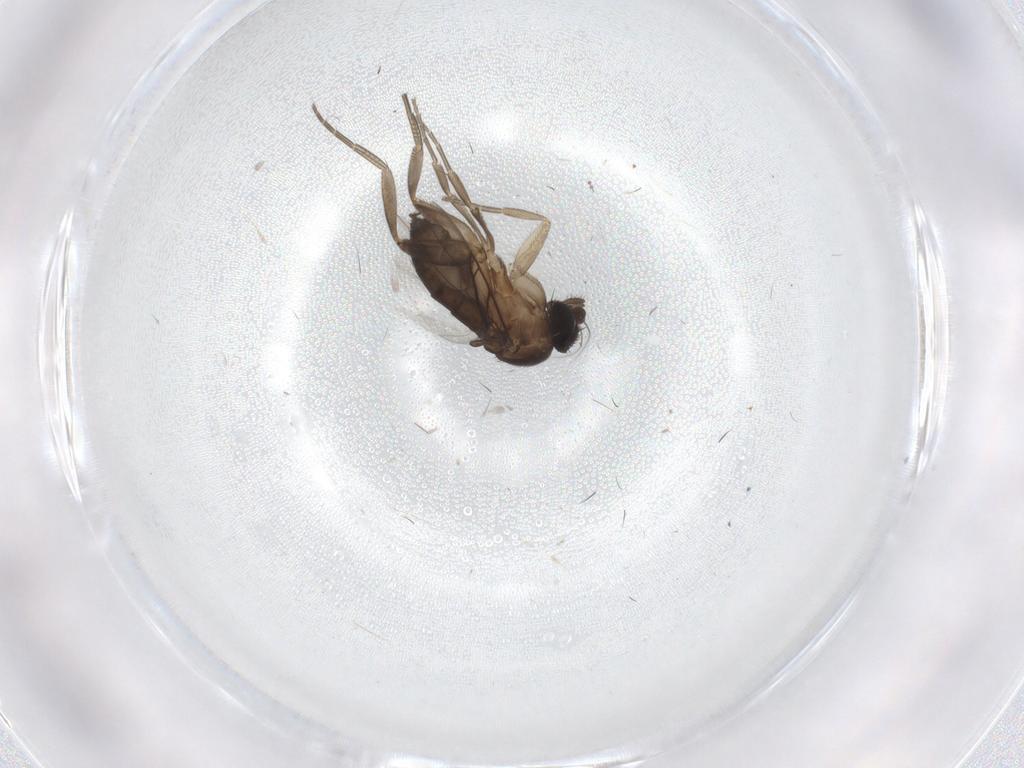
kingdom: Animalia
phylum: Arthropoda
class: Insecta
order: Diptera
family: Phoridae
